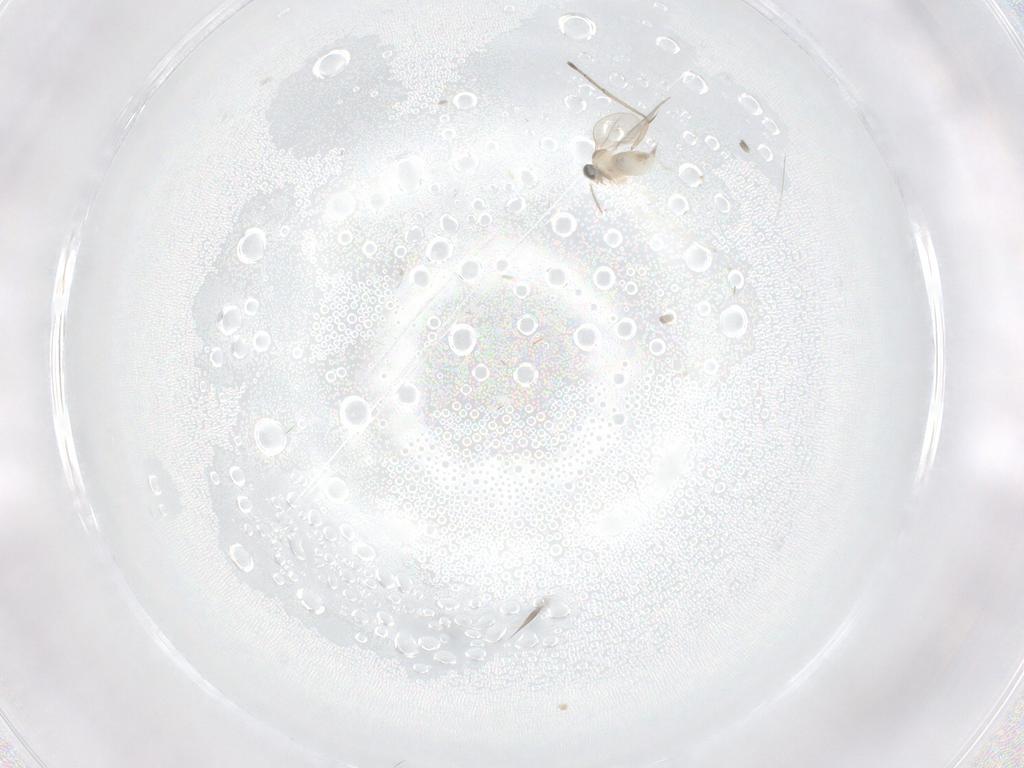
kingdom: Animalia
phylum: Arthropoda
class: Insecta
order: Diptera
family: Cecidomyiidae
